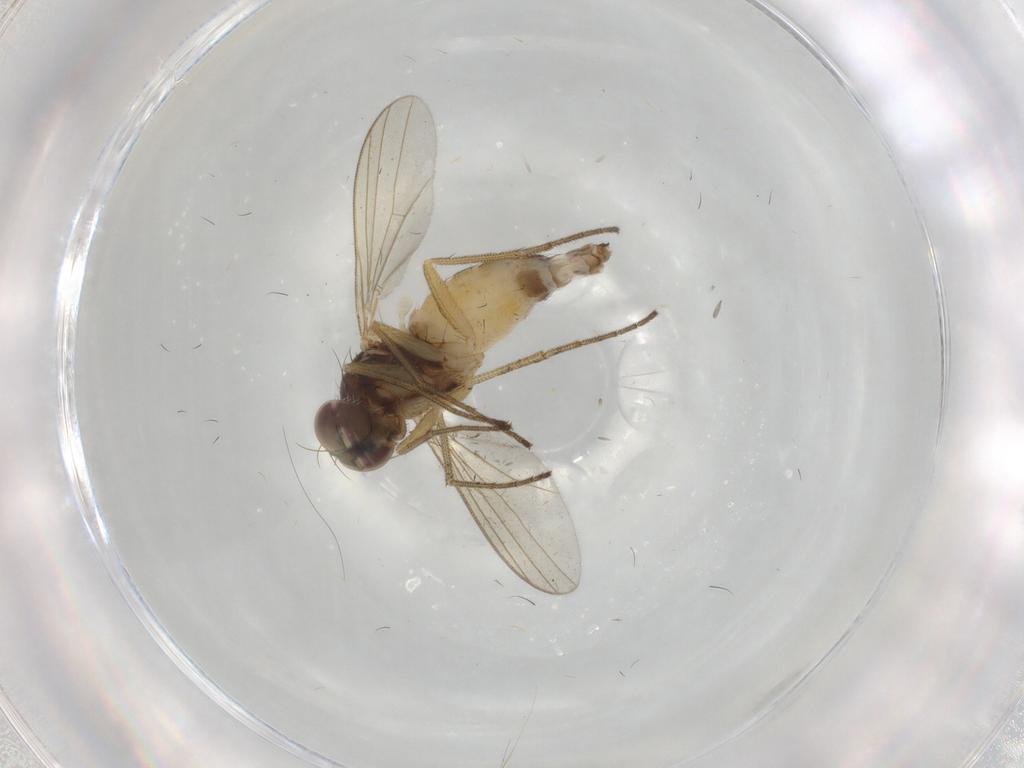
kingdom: Animalia
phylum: Arthropoda
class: Insecta
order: Diptera
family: Dolichopodidae
